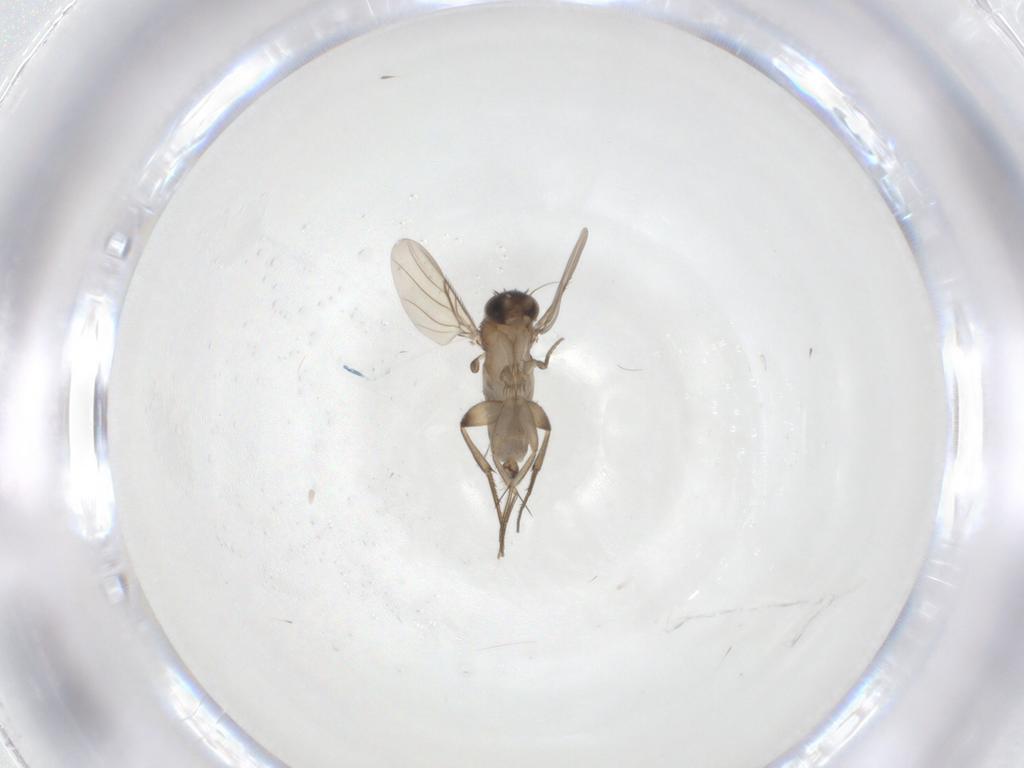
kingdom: Animalia
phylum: Arthropoda
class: Insecta
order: Diptera
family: Phoridae
